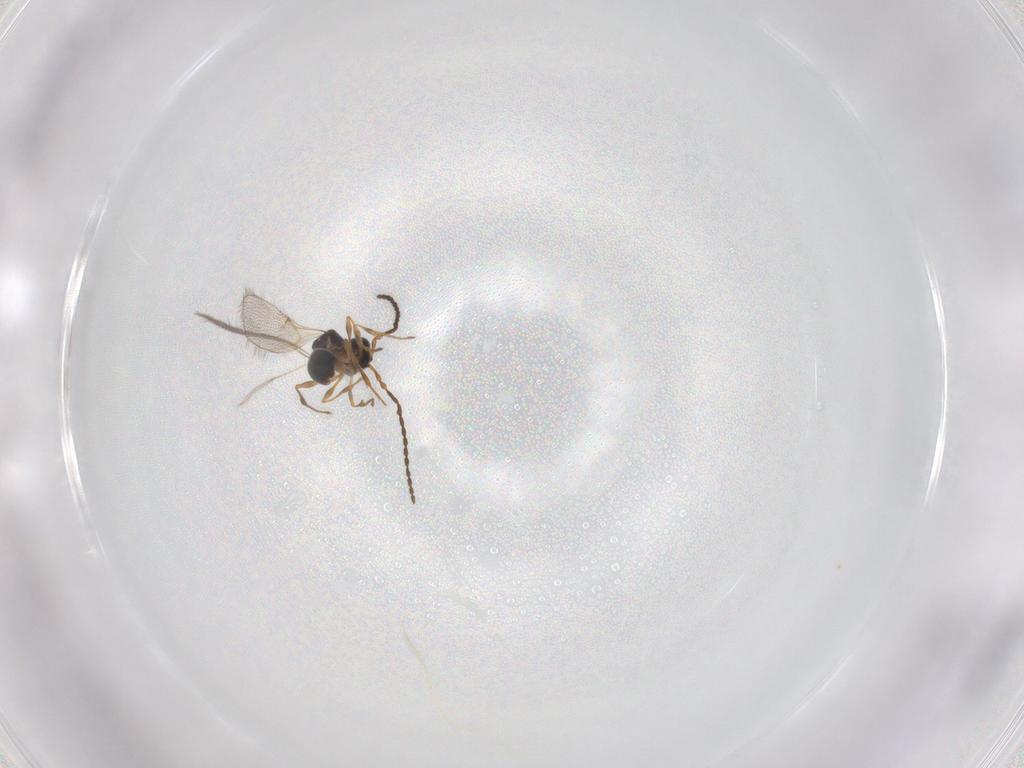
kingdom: Animalia
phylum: Arthropoda
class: Insecta
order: Hymenoptera
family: Diapriidae
